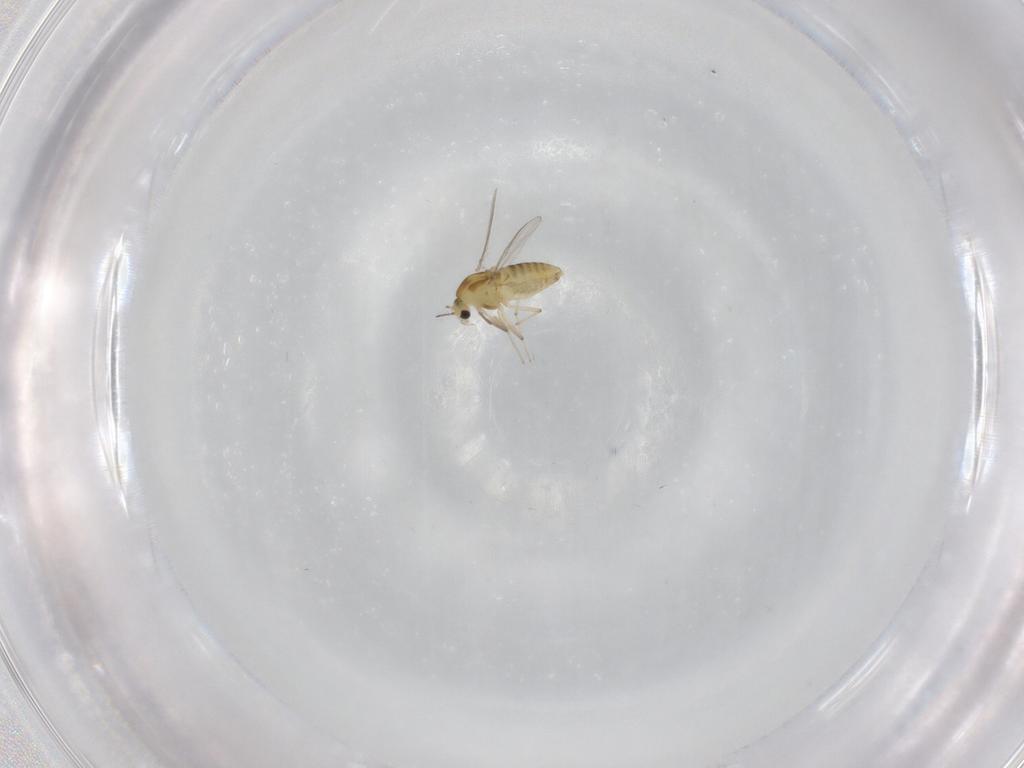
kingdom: Animalia
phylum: Arthropoda
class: Insecta
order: Diptera
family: Chironomidae
